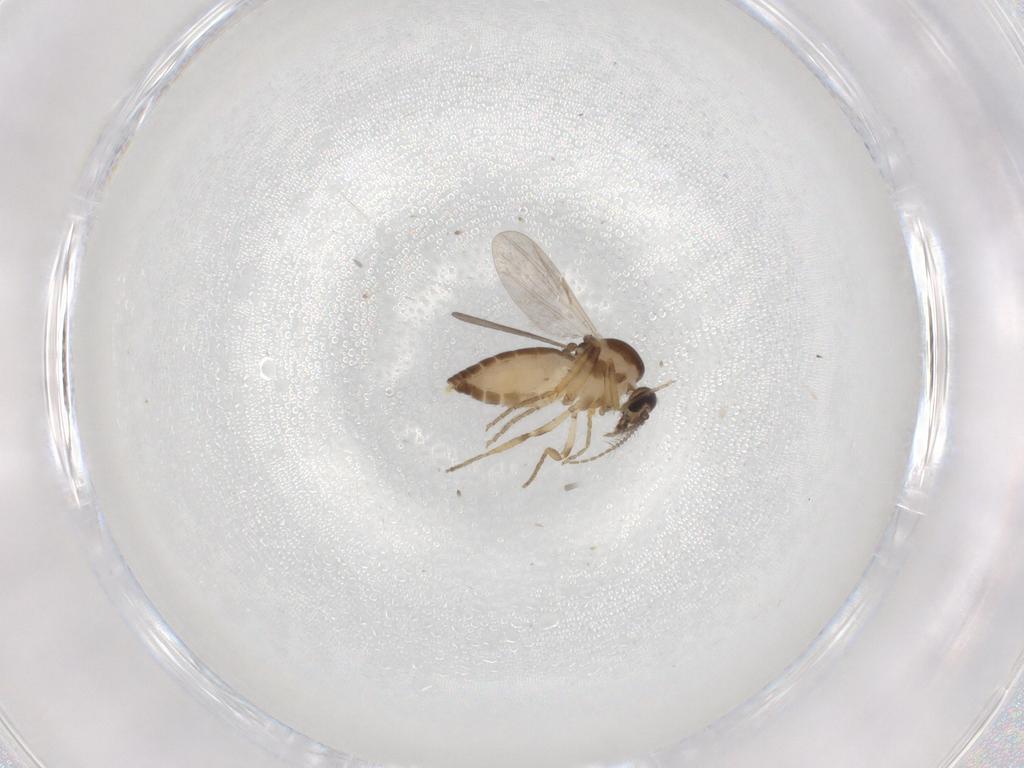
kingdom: Animalia
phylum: Arthropoda
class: Insecta
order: Diptera
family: Ceratopogonidae
